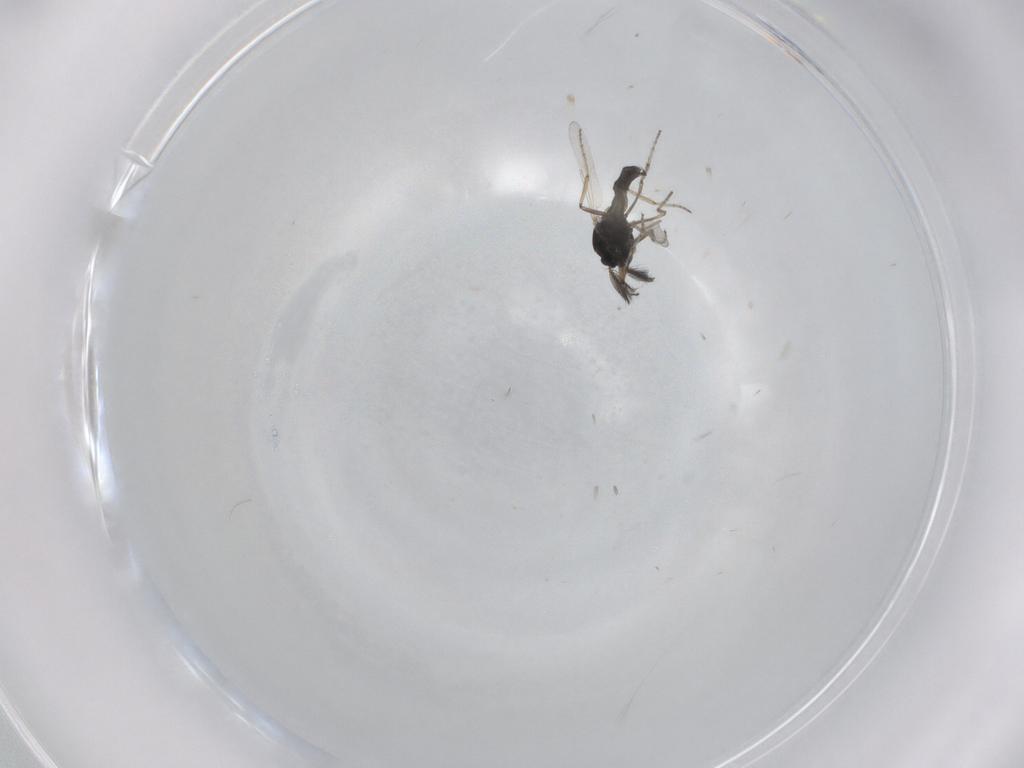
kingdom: Animalia
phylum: Arthropoda
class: Insecta
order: Diptera
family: Ceratopogonidae
